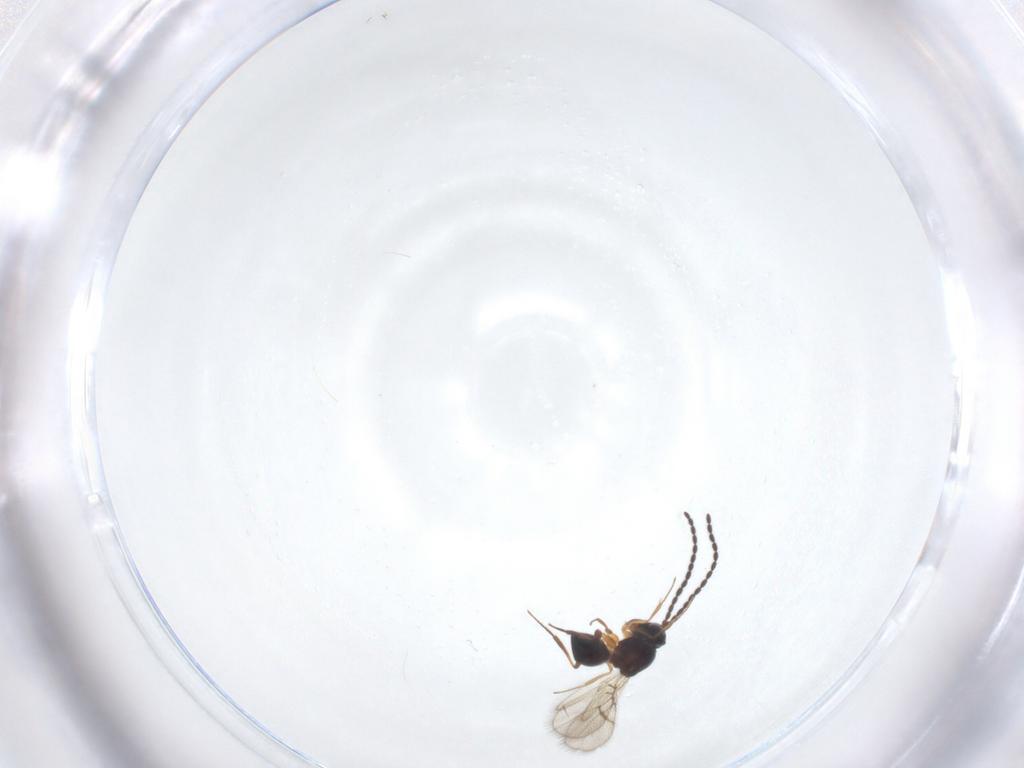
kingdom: Animalia
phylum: Arthropoda
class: Insecta
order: Hymenoptera
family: Figitidae
